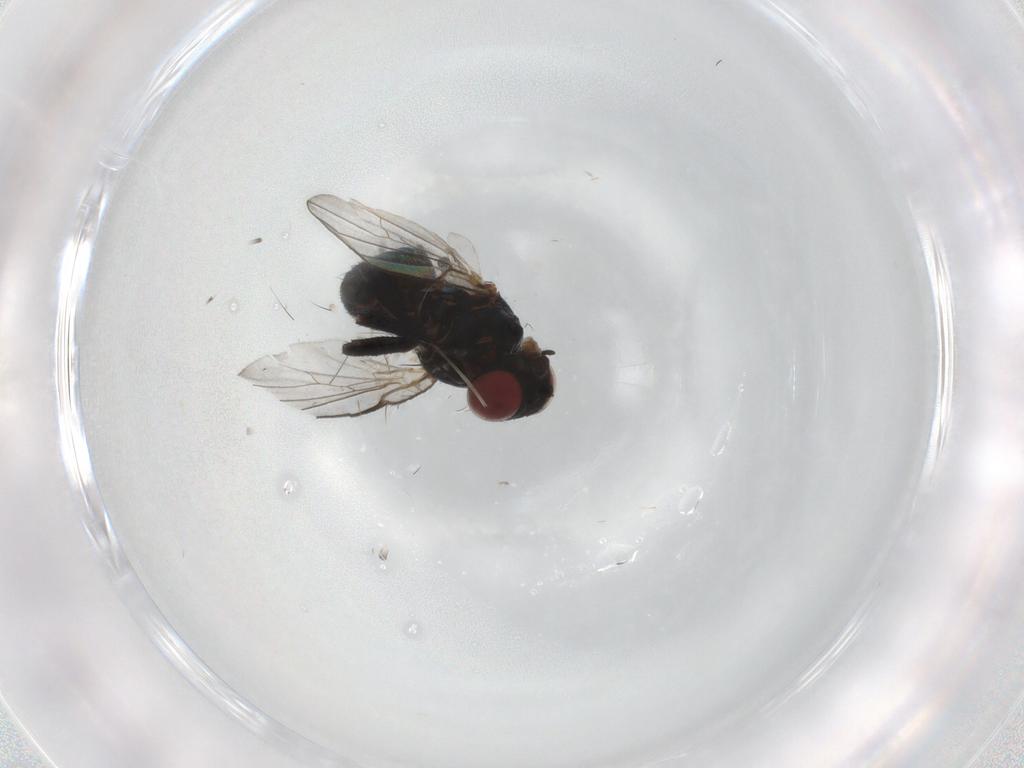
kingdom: Animalia
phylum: Arthropoda
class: Insecta
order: Diptera
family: Agromyzidae
